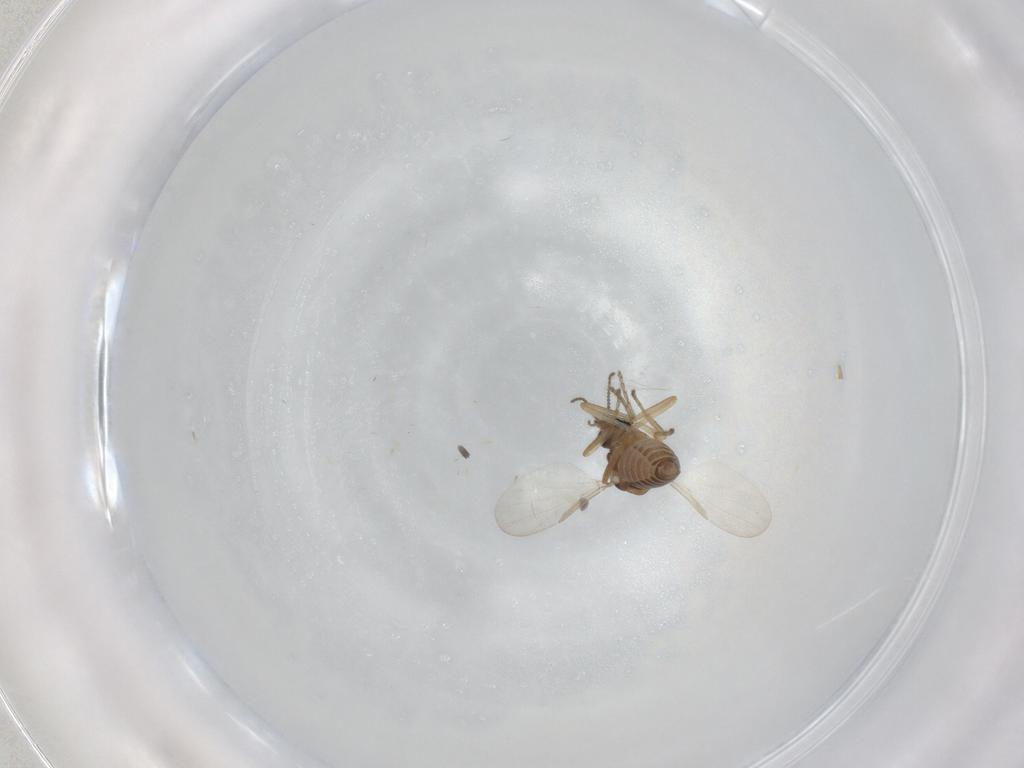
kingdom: Animalia
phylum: Arthropoda
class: Insecta
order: Diptera
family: Ceratopogonidae
